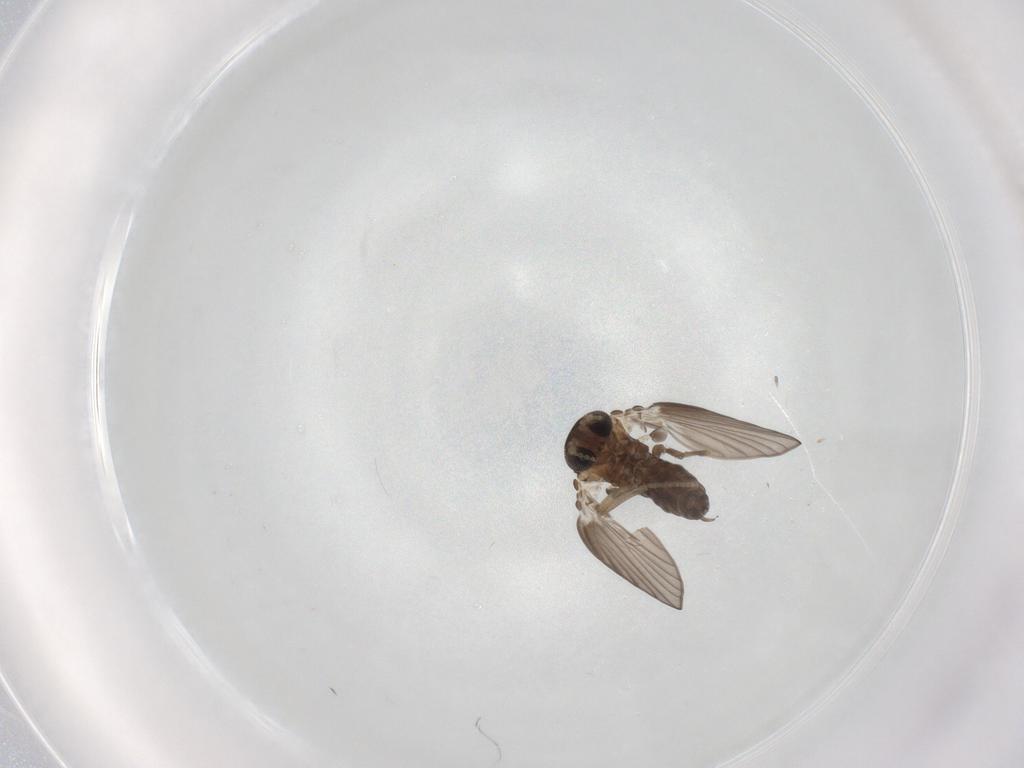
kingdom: Animalia
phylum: Arthropoda
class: Insecta
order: Diptera
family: Psychodidae
